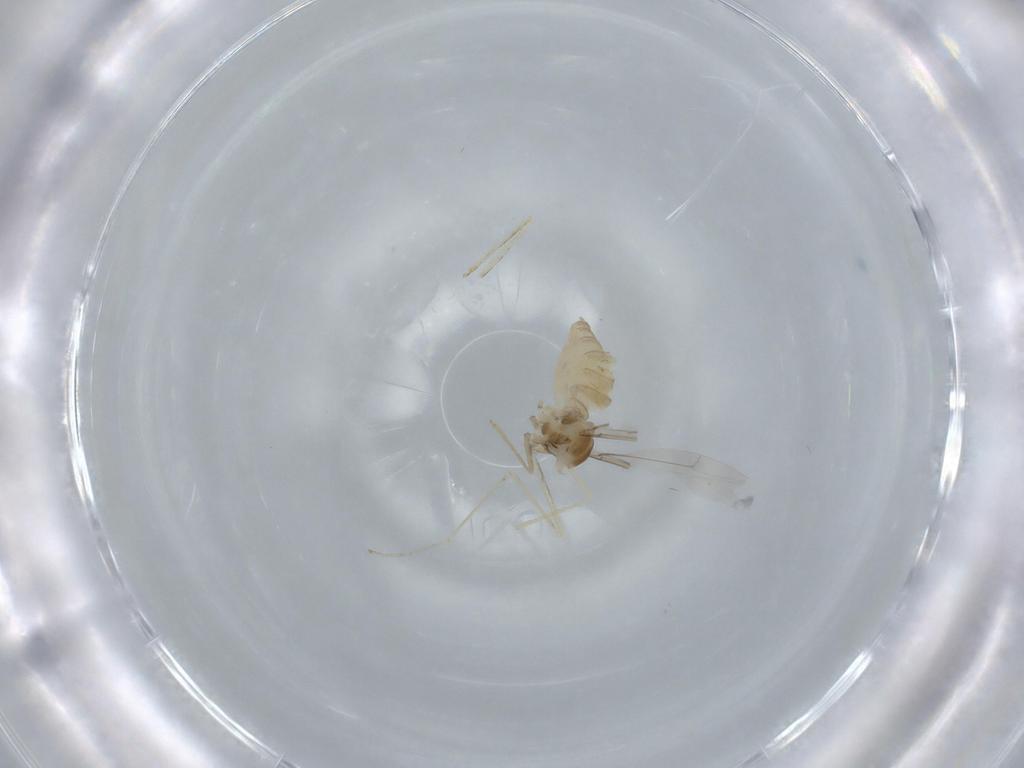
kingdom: Animalia
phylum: Arthropoda
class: Insecta
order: Diptera
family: Cecidomyiidae
